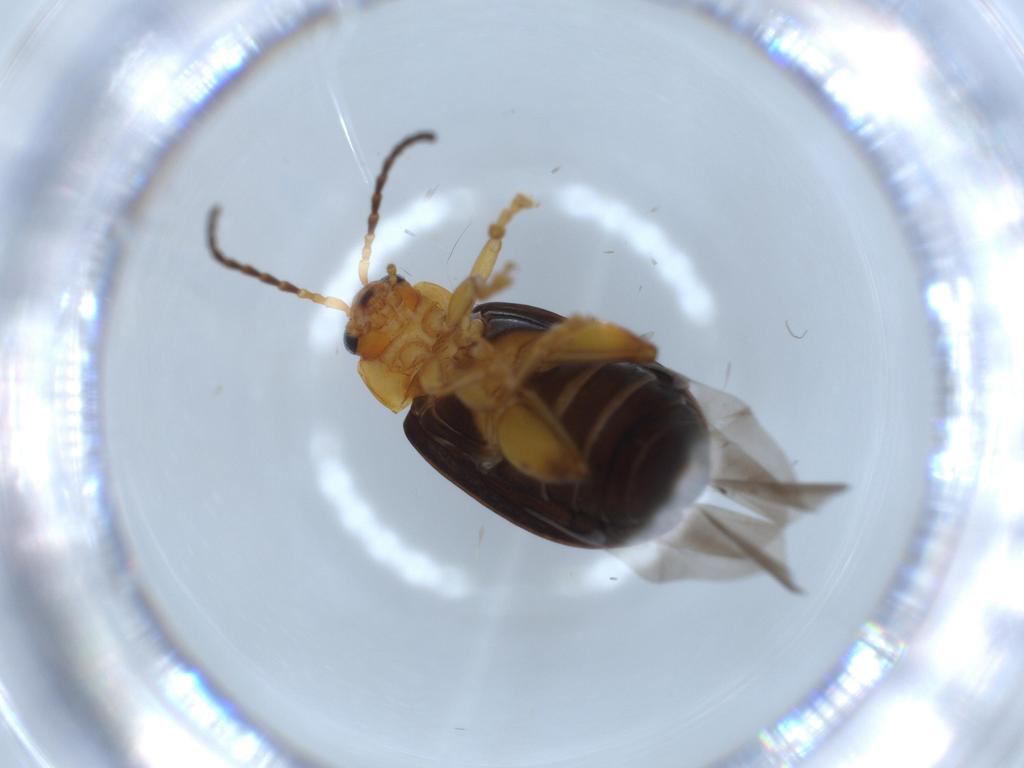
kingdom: Animalia
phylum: Arthropoda
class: Insecta
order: Coleoptera
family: Chrysomelidae
